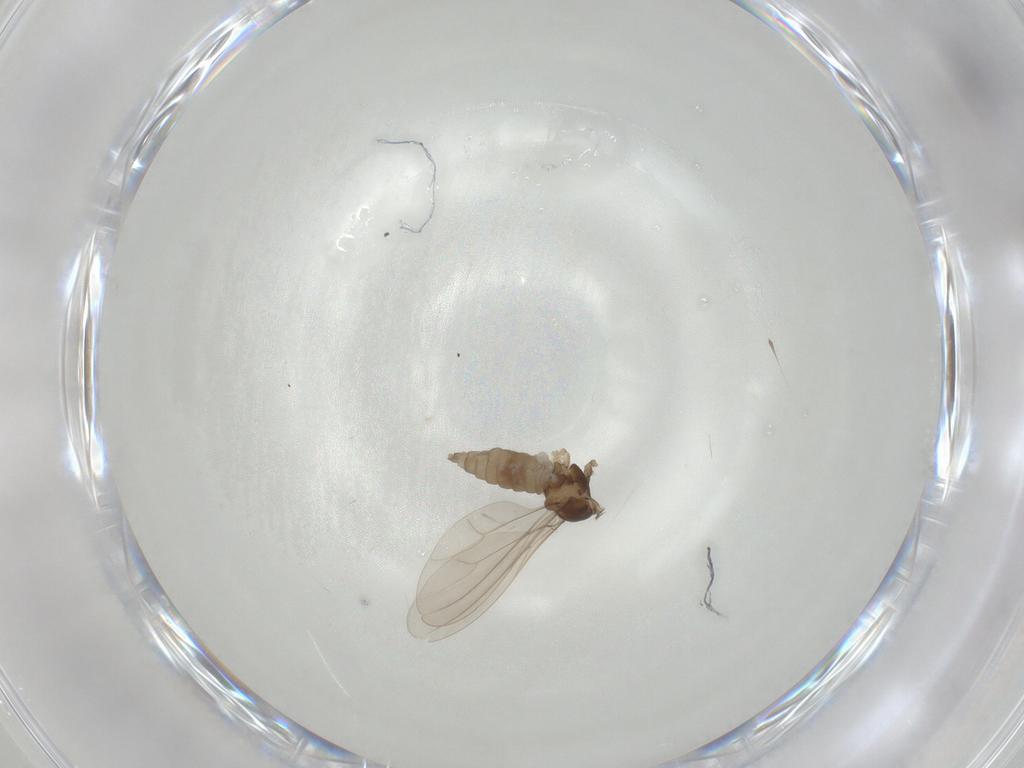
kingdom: Animalia
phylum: Arthropoda
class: Insecta
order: Diptera
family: Cecidomyiidae
